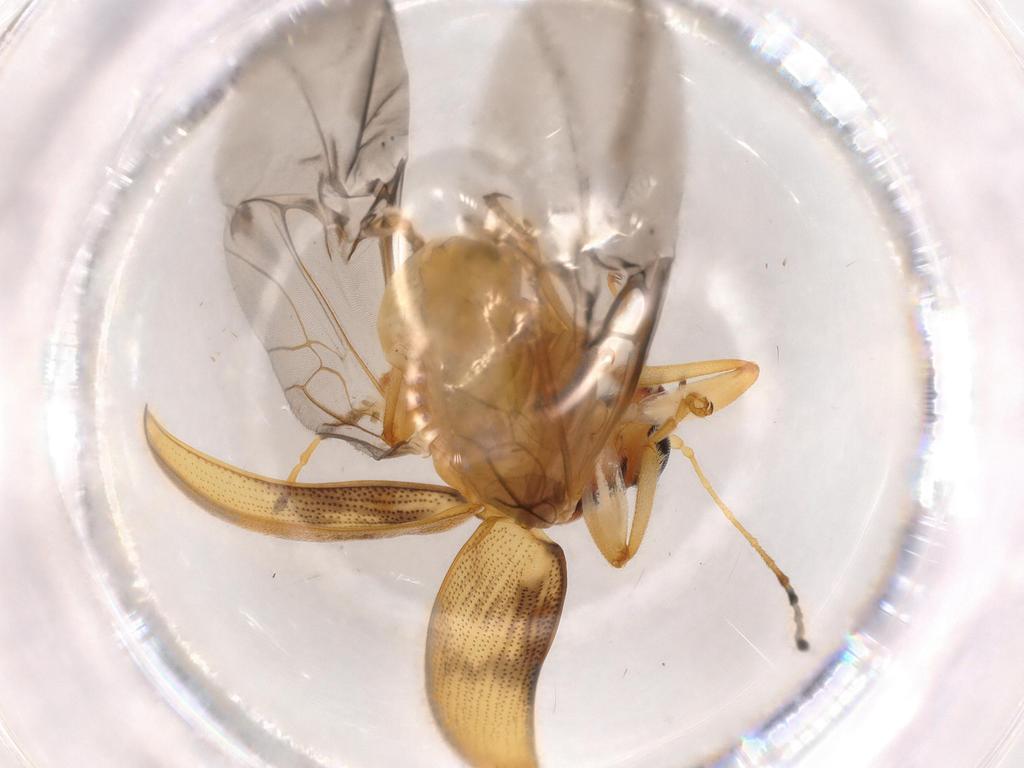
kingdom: Animalia
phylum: Arthropoda
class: Insecta
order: Coleoptera
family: Chrysomelidae
